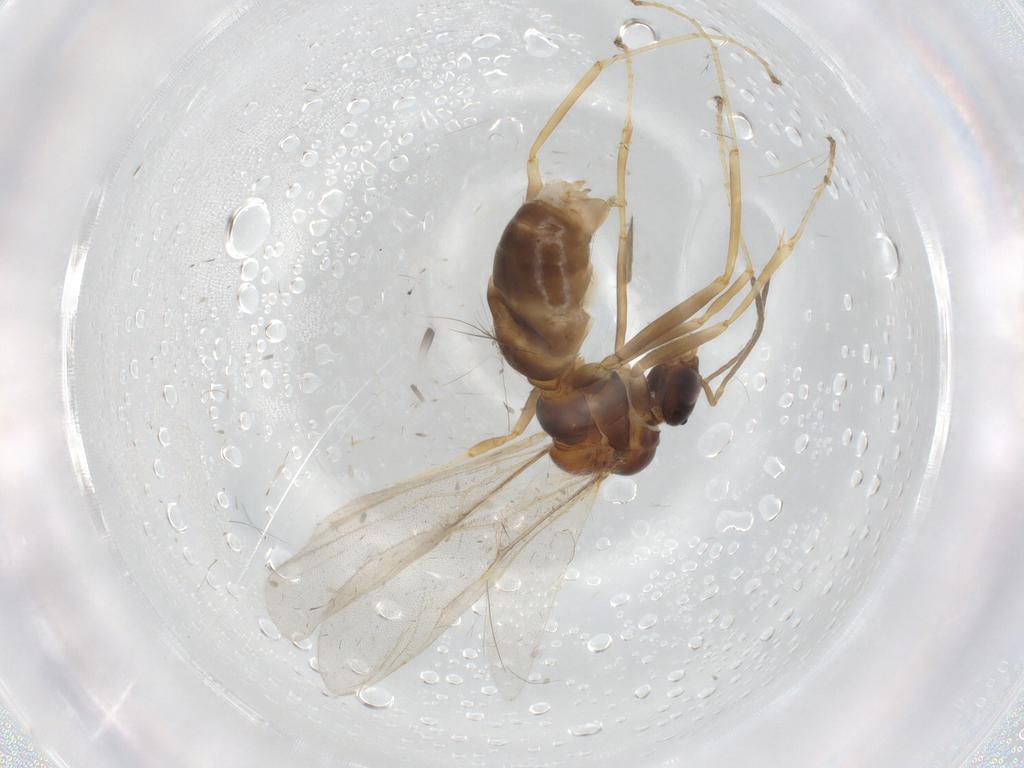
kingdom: Animalia
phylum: Arthropoda
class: Insecta
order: Hymenoptera
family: Formicidae
